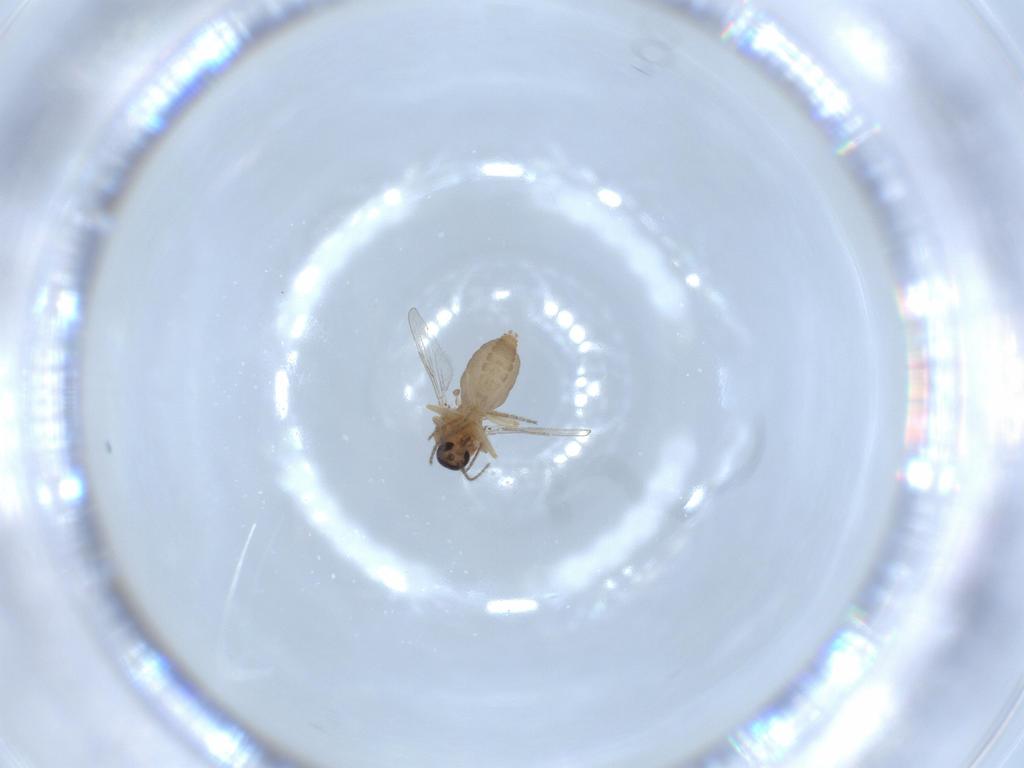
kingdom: Animalia
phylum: Arthropoda
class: Insecta
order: Diptera
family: Ceratopogonidae
